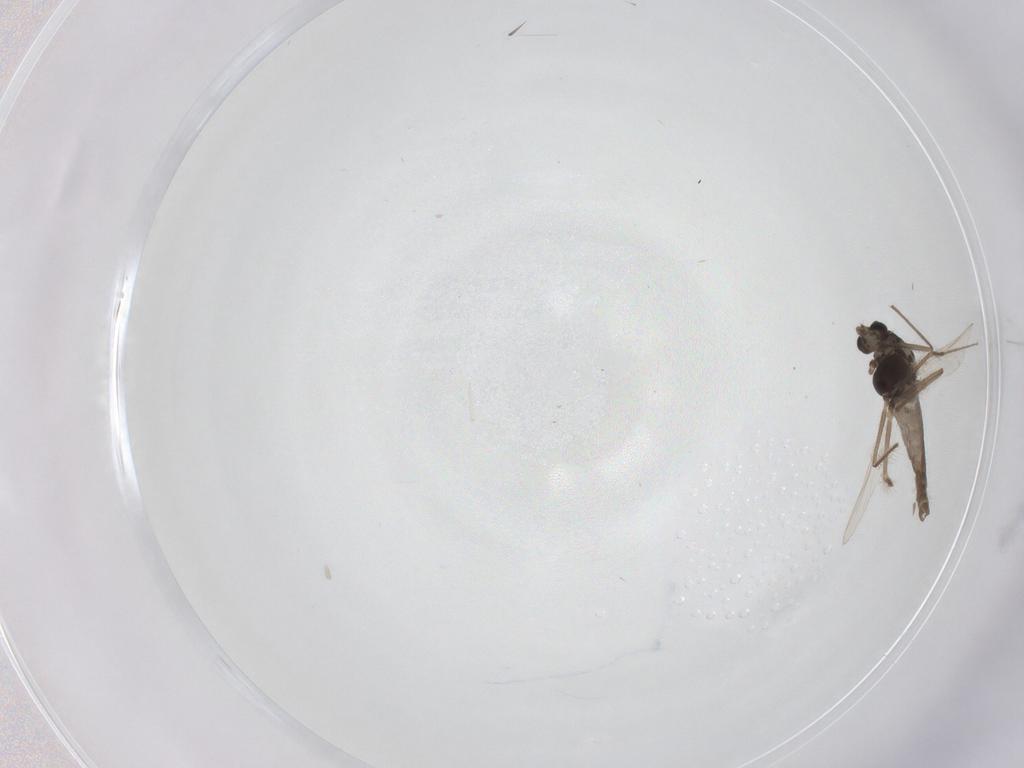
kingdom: Animalia
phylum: Arthropoda
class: Insecta
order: Diptera
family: Chironomidae
